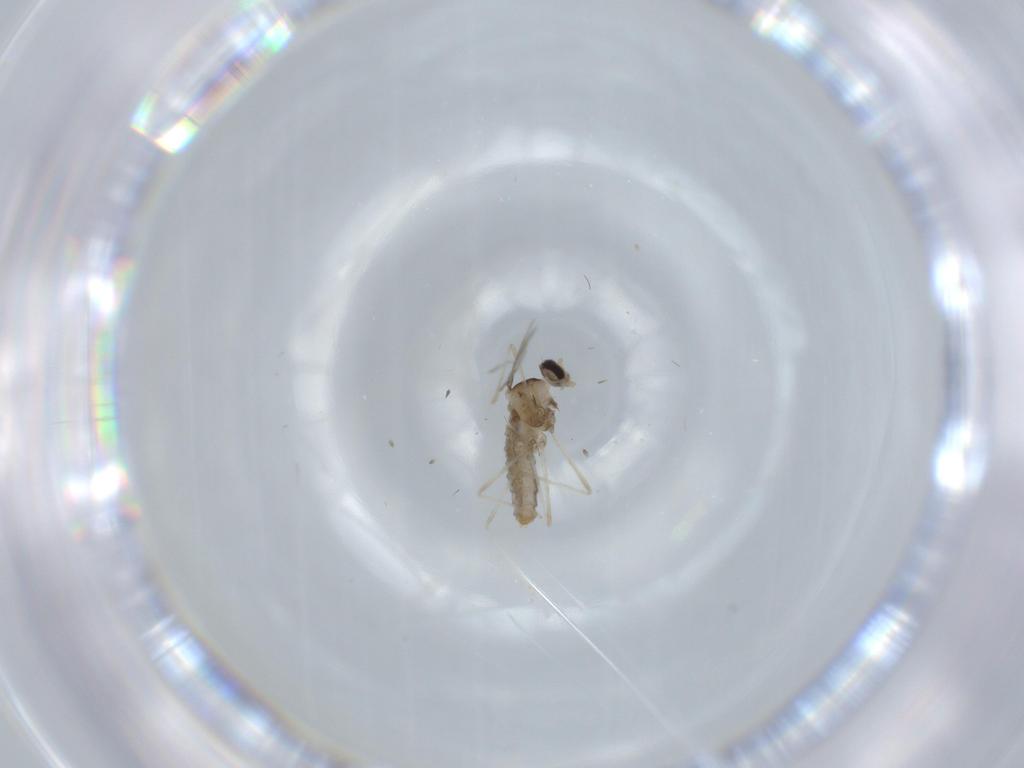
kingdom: Animalia
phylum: Arthropoda
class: Insecta
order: Diptera
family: Cecidomyiidae
